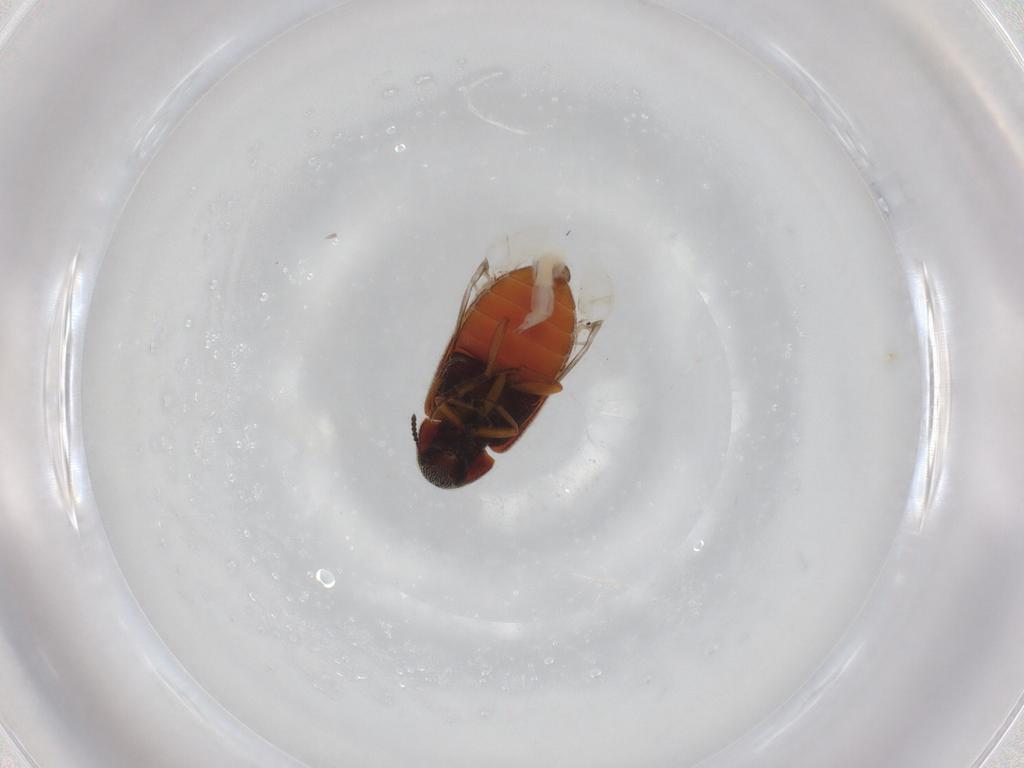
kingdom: Animalia
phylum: Arthropoda
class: Insecta
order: Coleoptera
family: Rhadalidae
